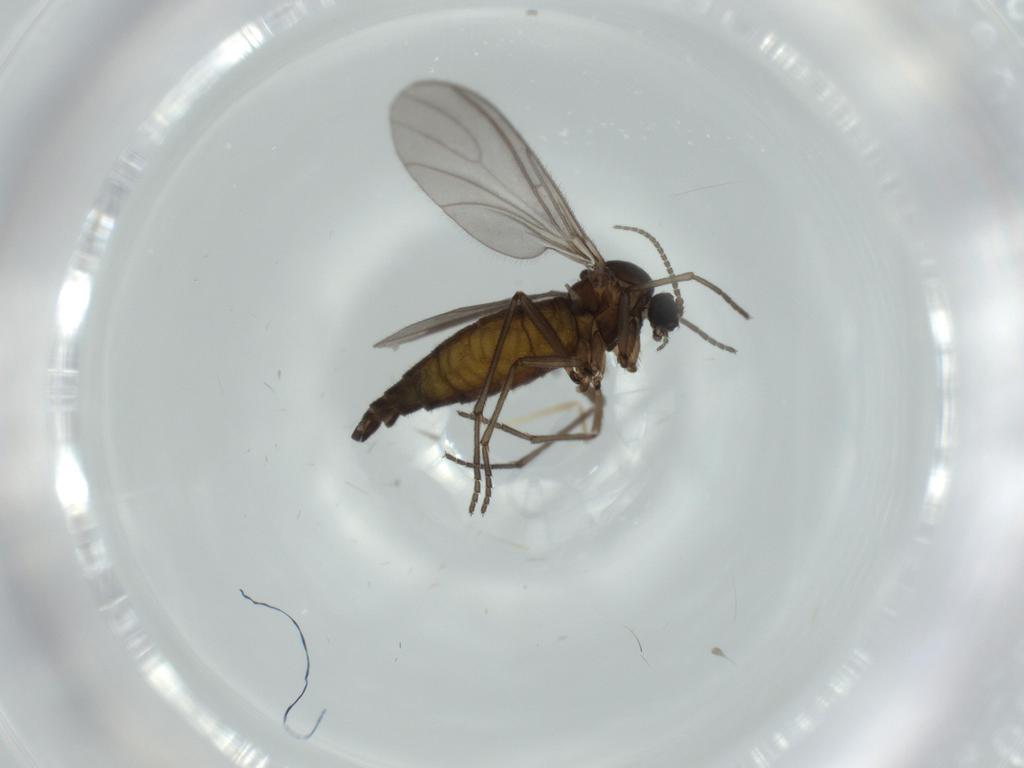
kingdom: Animalia
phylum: Arthropoda
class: Insecta
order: Diptera
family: Sciaridae
